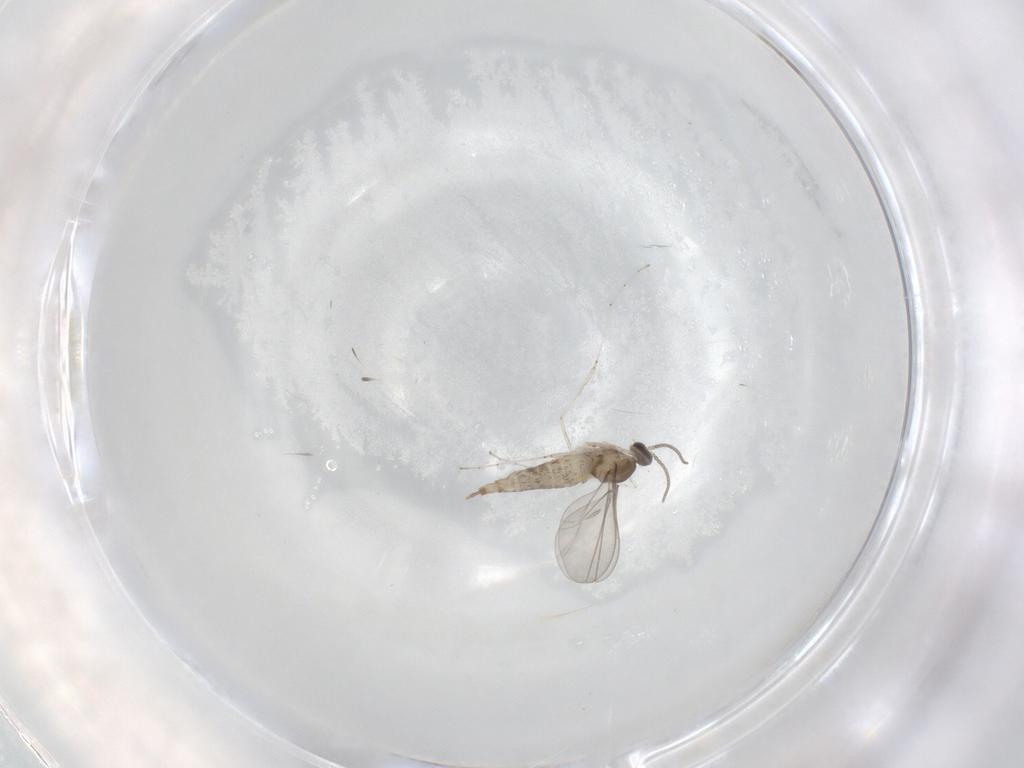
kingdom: Animalia
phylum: Arthropoda
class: Insecta
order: Diptera
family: Cecidomyiidae
